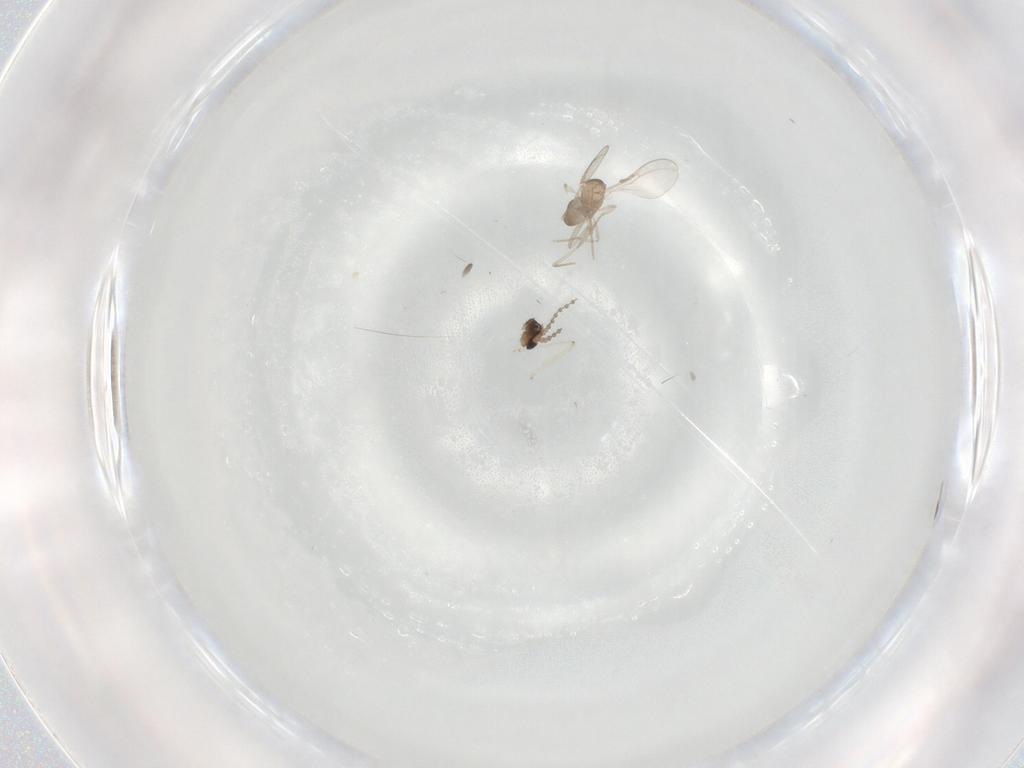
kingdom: Animalia
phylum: Arthropoda
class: Insecta
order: Diptera
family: Cecidomyiidae
